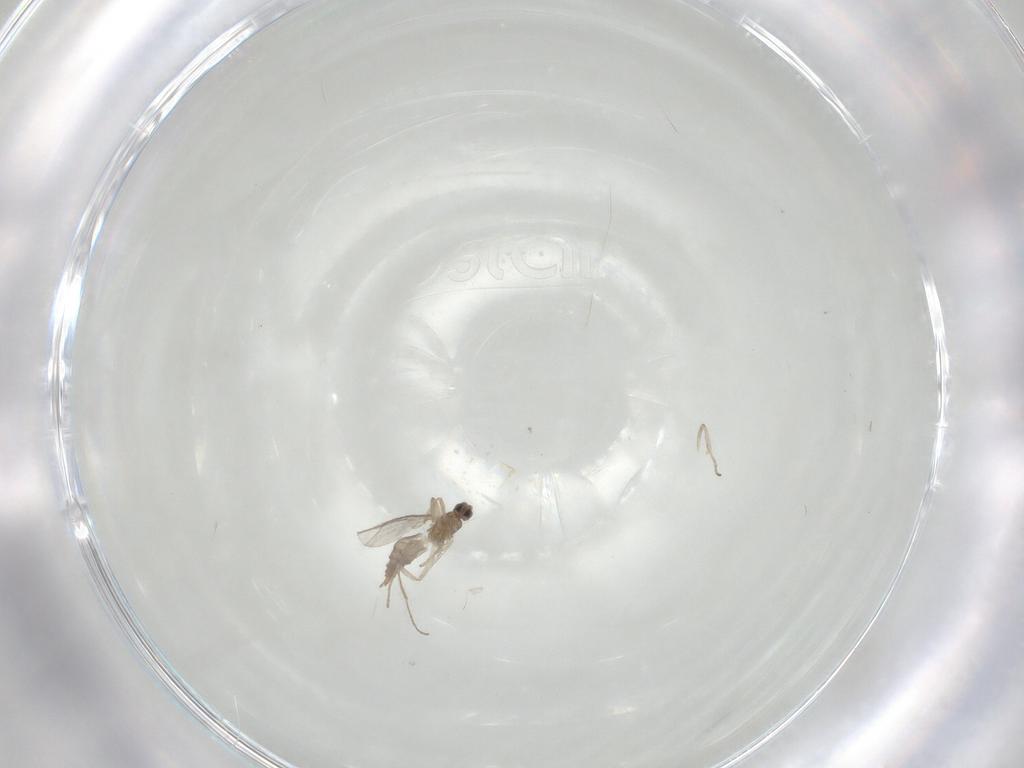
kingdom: Animalia
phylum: Arthropoda
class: Insecta
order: Diptera
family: Cecidomyiidae
